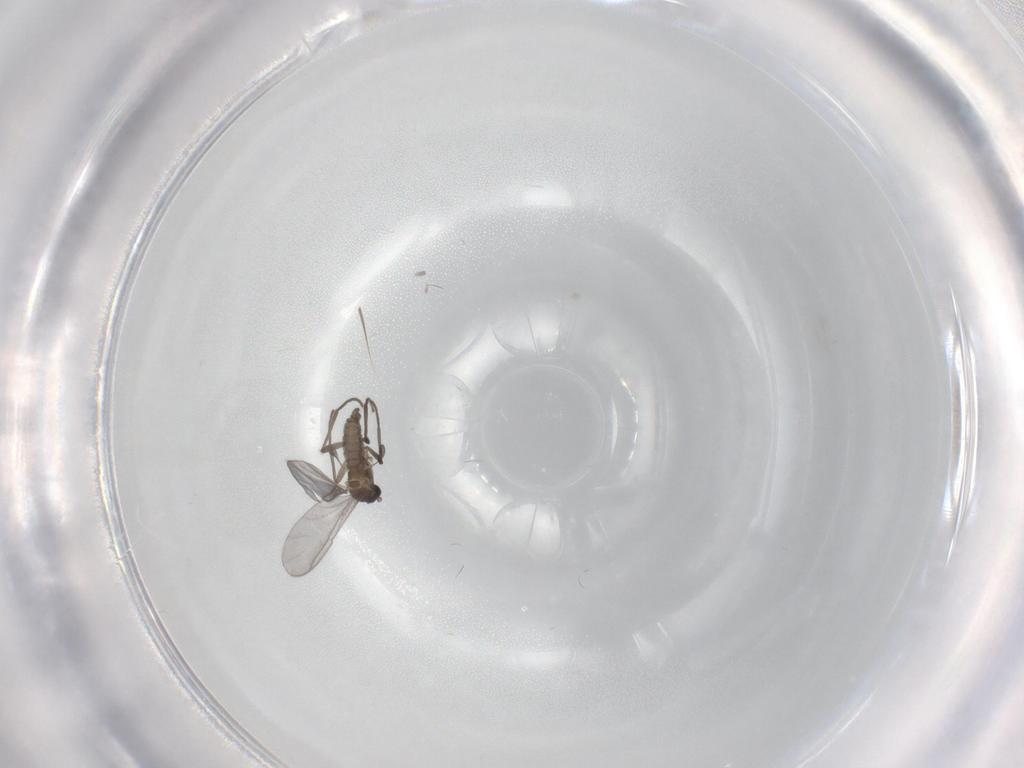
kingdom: Animalia
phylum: Arthropoda
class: Insecta
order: Diptera
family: Sciaridae
